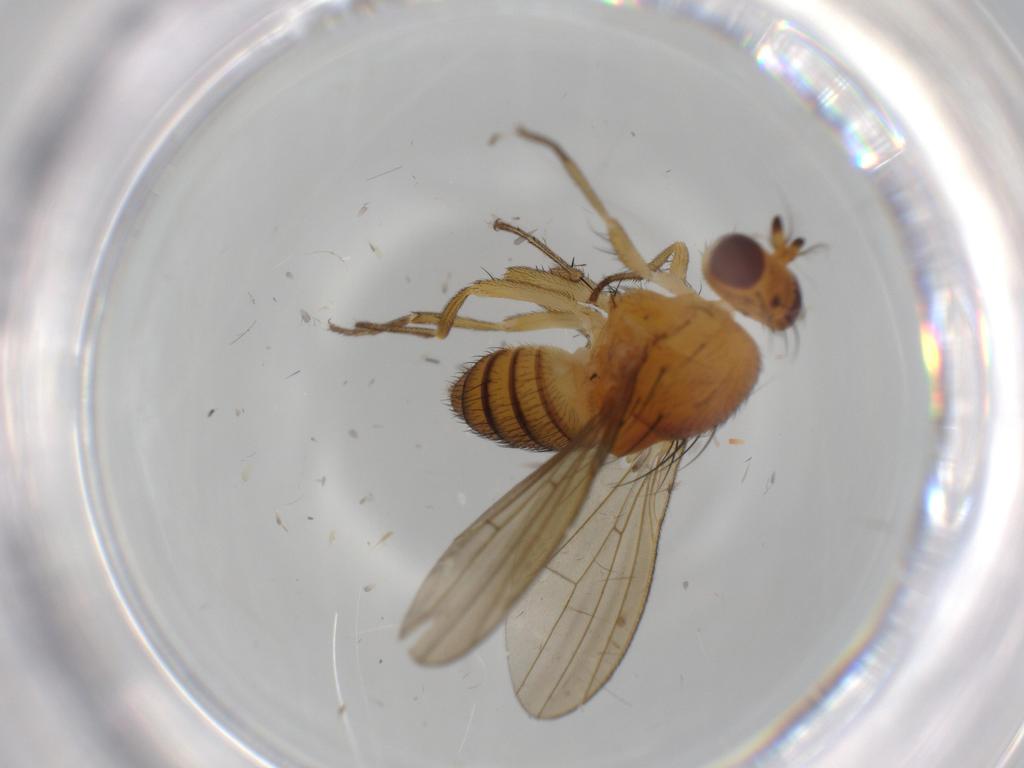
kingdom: Animalia
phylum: Arthropoda
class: Insecta
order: Diptera
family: Lauxaniidae
